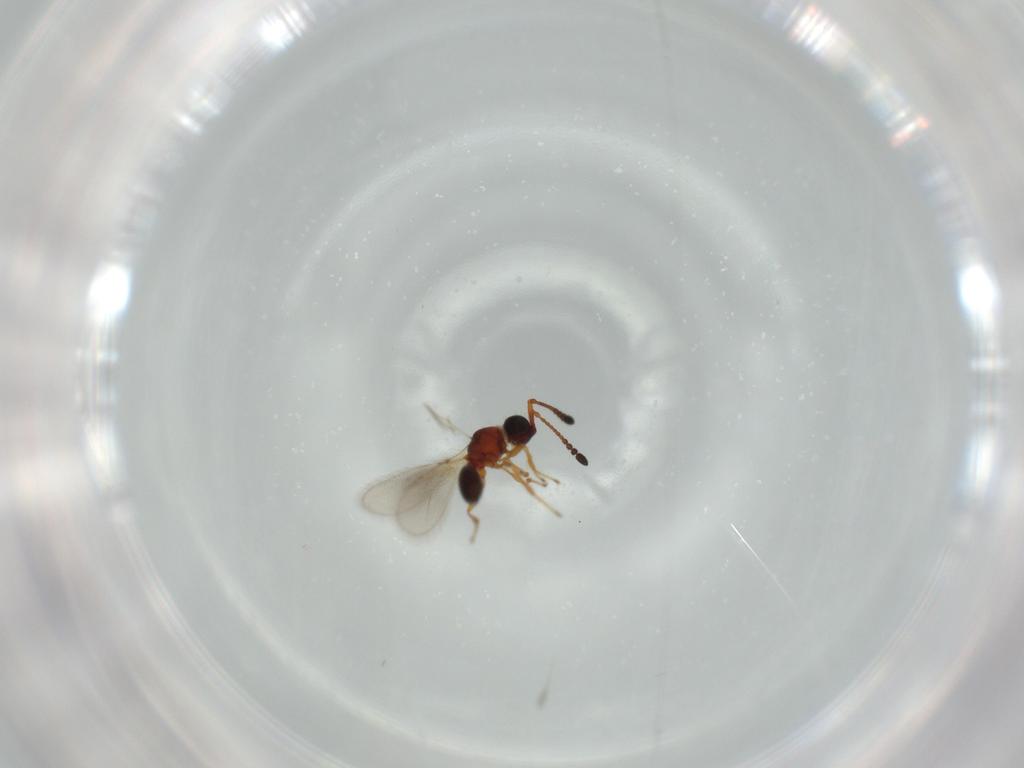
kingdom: Animalia
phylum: Arthropoda
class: Insecta
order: Hymenoptera
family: Diapriidae
